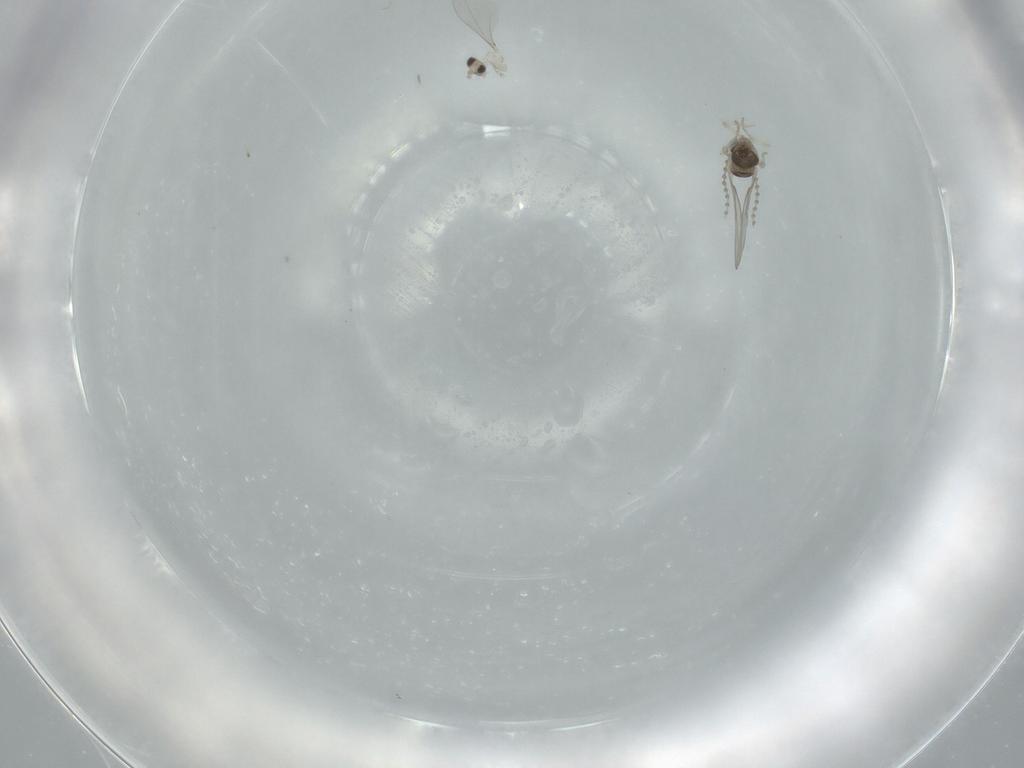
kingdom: Animalia
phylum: Arthropoda
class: Insecta
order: Diptera
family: Cecidomyiidae
